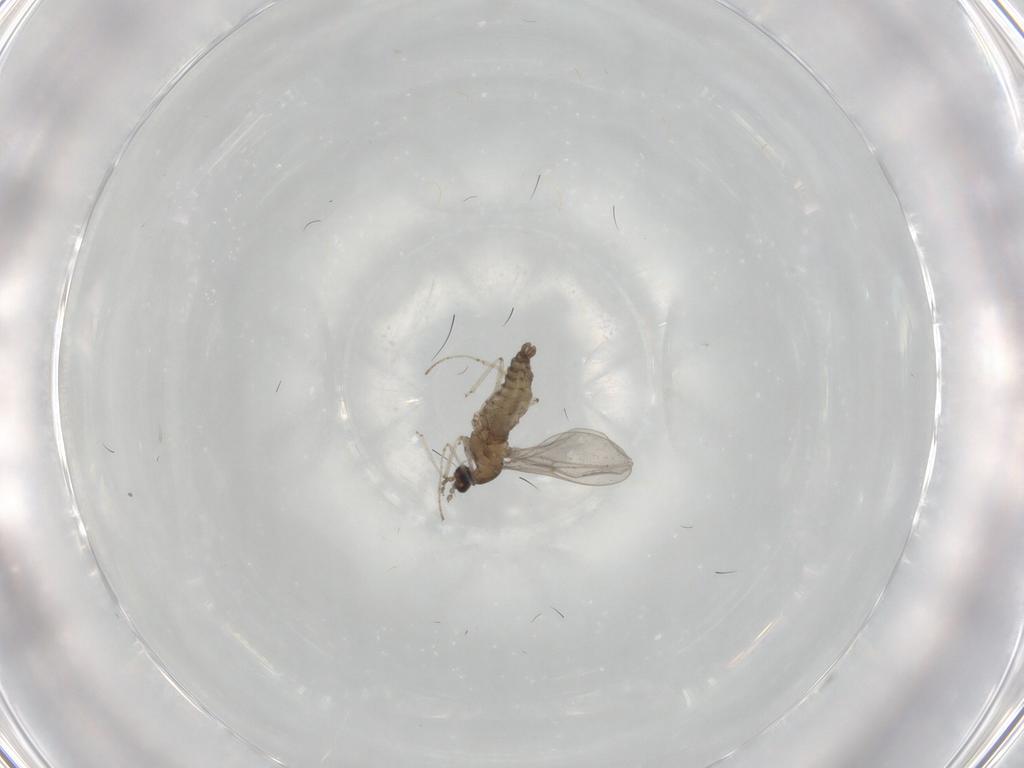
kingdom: Animalia
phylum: Arthropoda
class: Insecta
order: Diptera
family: Cecidomyiidae
